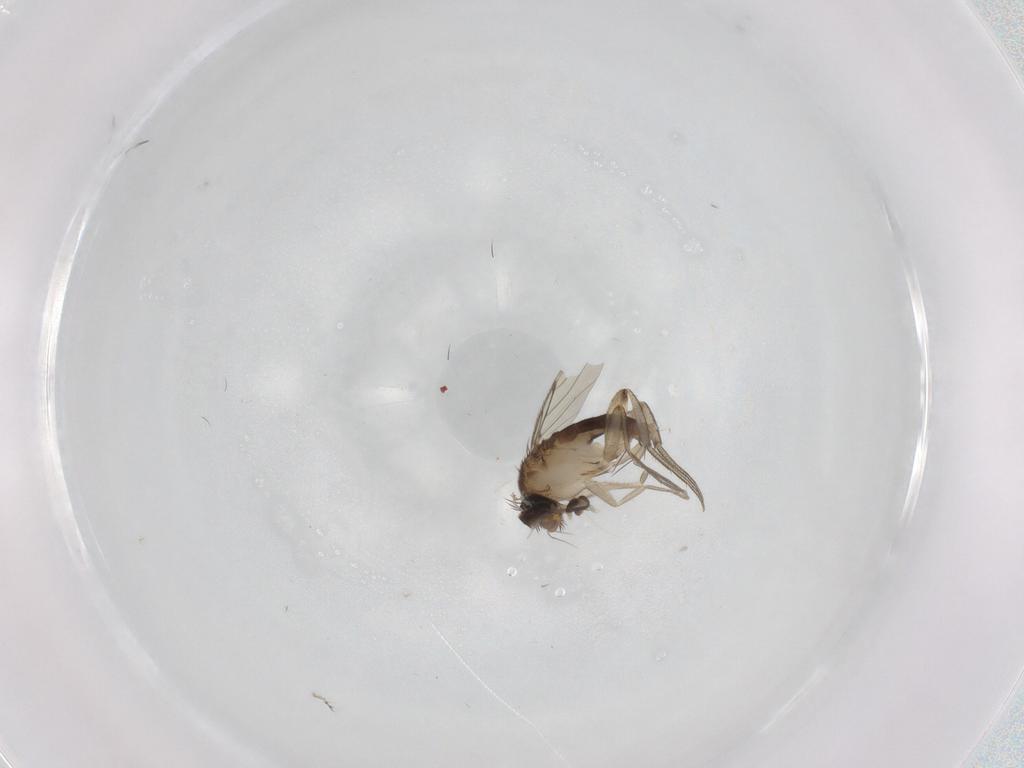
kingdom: Animalia
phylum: Arthropoda
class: Insecta
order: Diptera
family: Phoridae
